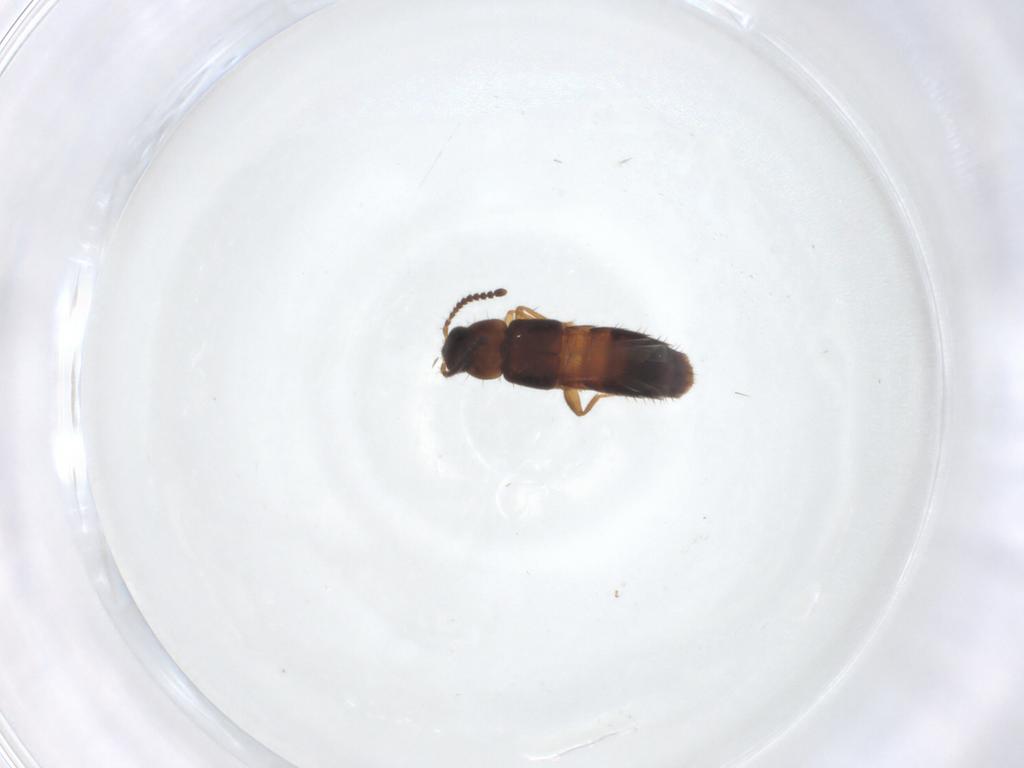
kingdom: Animalia
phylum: Arthropoda
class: Insecta
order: Coleoptera
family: Staphylinidae
